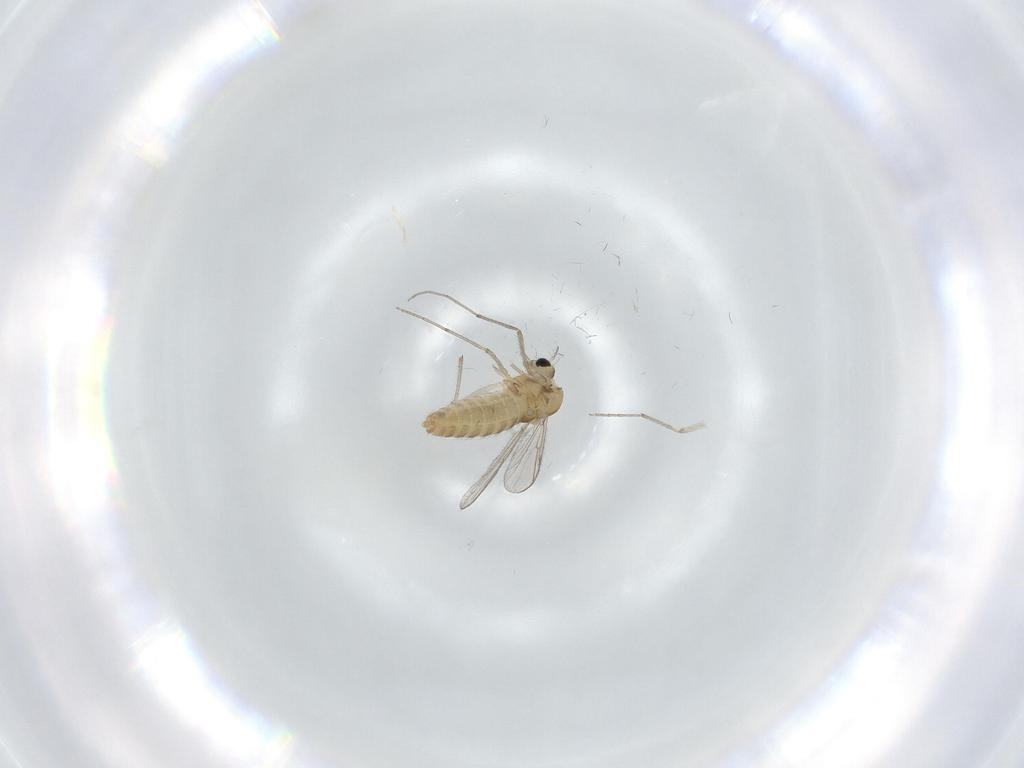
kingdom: Animalia
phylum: Arthropoda
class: Insecta
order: Diptera
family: Chironomidae
